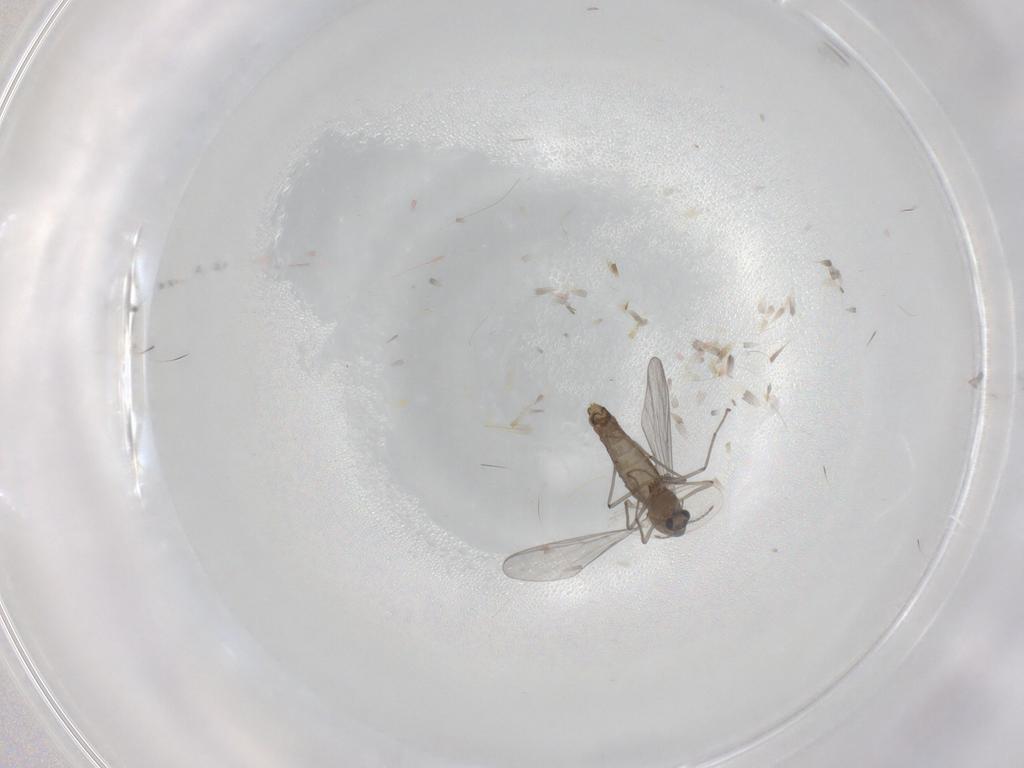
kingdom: Animalia
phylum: Arthropoda
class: Insecta
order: Diptera
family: Chironomidae
